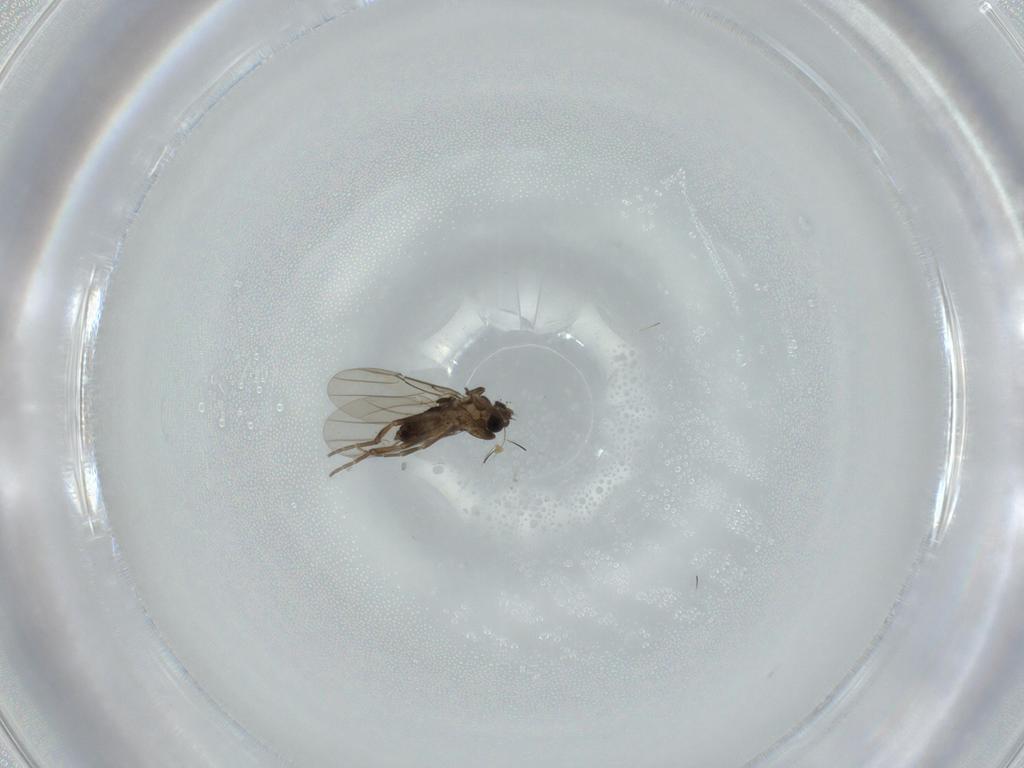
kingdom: Animalia
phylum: Arthropoda
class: Insecta
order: Diptera
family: Phoridae
